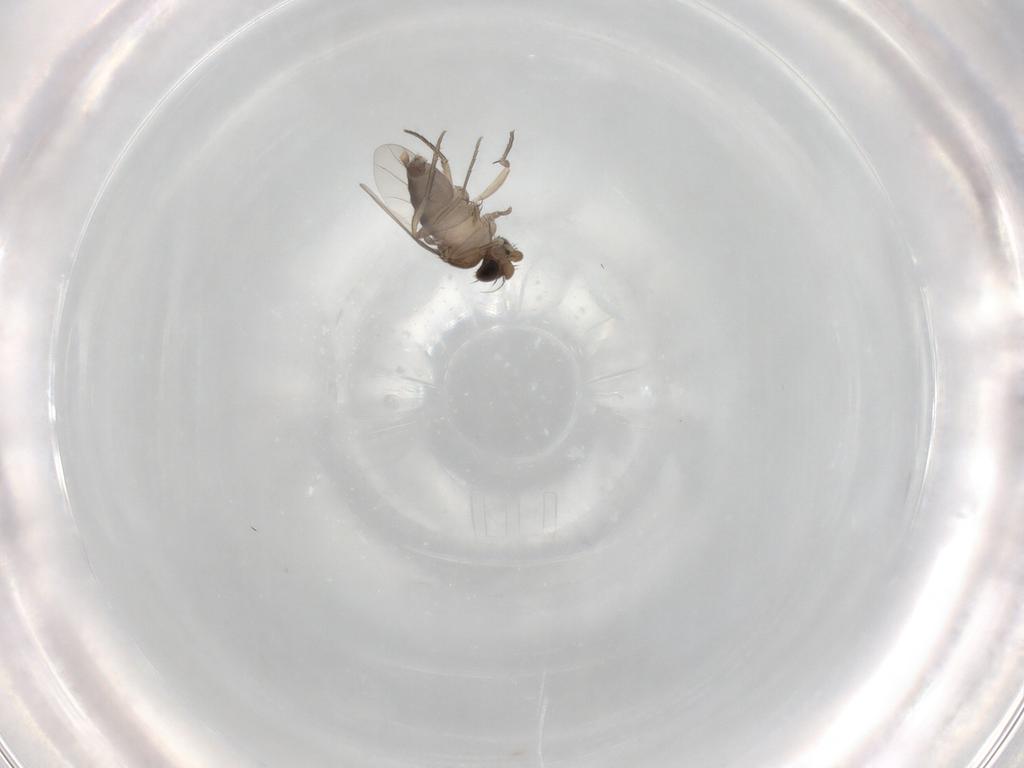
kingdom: Animalia
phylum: Arthropoda
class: Insecta
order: Diptera
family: Phoridae
